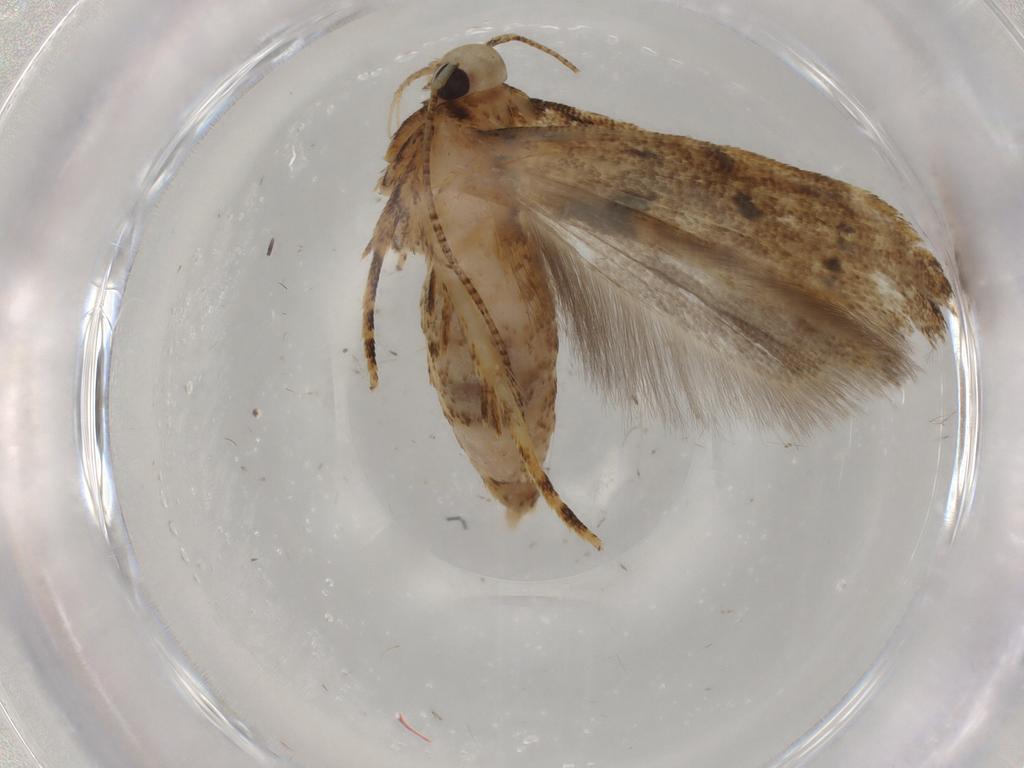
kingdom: Animalia
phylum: Arthropoda
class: Insecta
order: Lepidoptera
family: Gelechiidae
